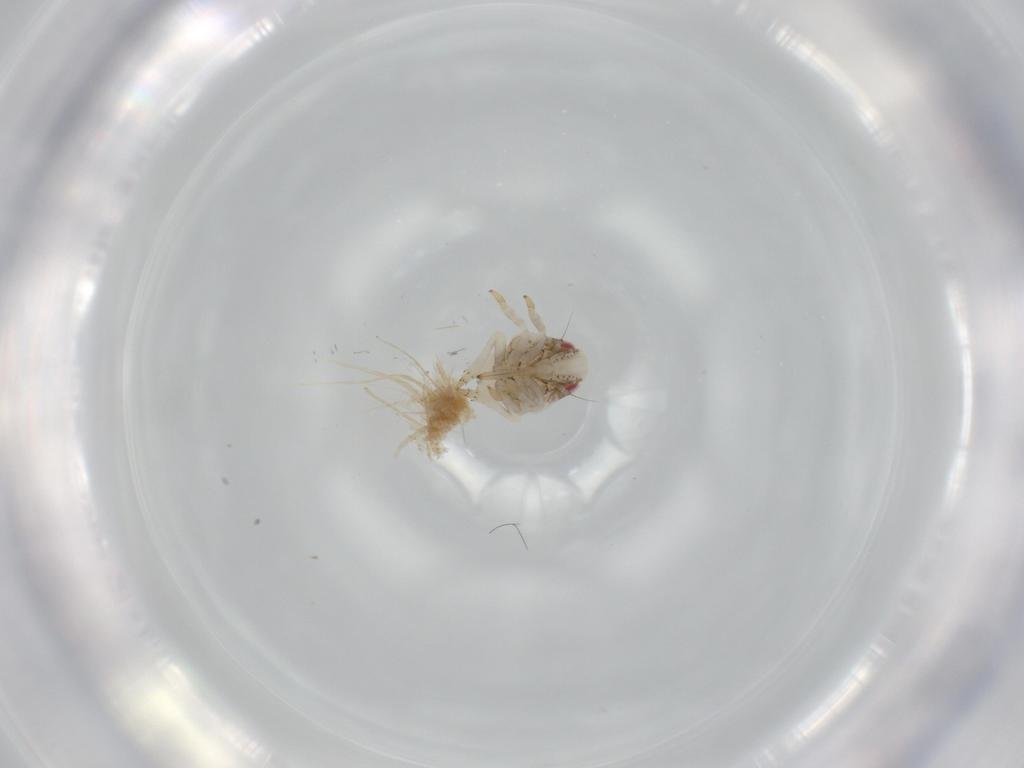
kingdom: Animalia
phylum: Arthropoda
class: Insecta
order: Hemiptera
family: Acanaloniidae
